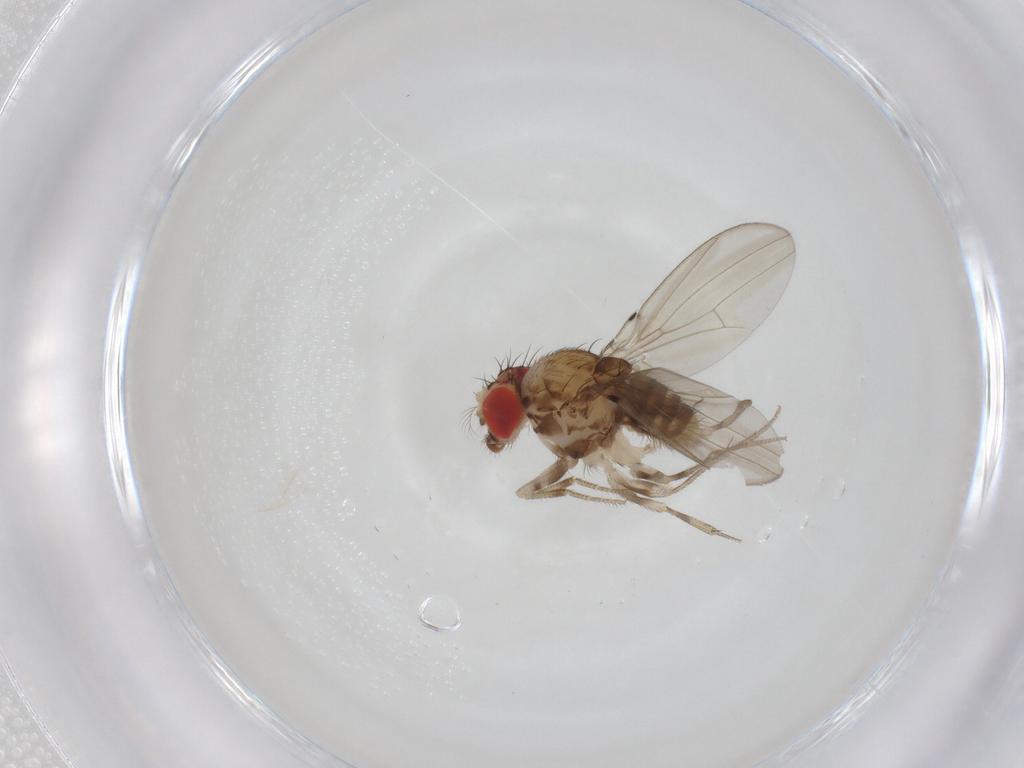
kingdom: Animalia
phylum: Arthropoda
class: Insecta
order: Diptera
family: Drosophilidae
